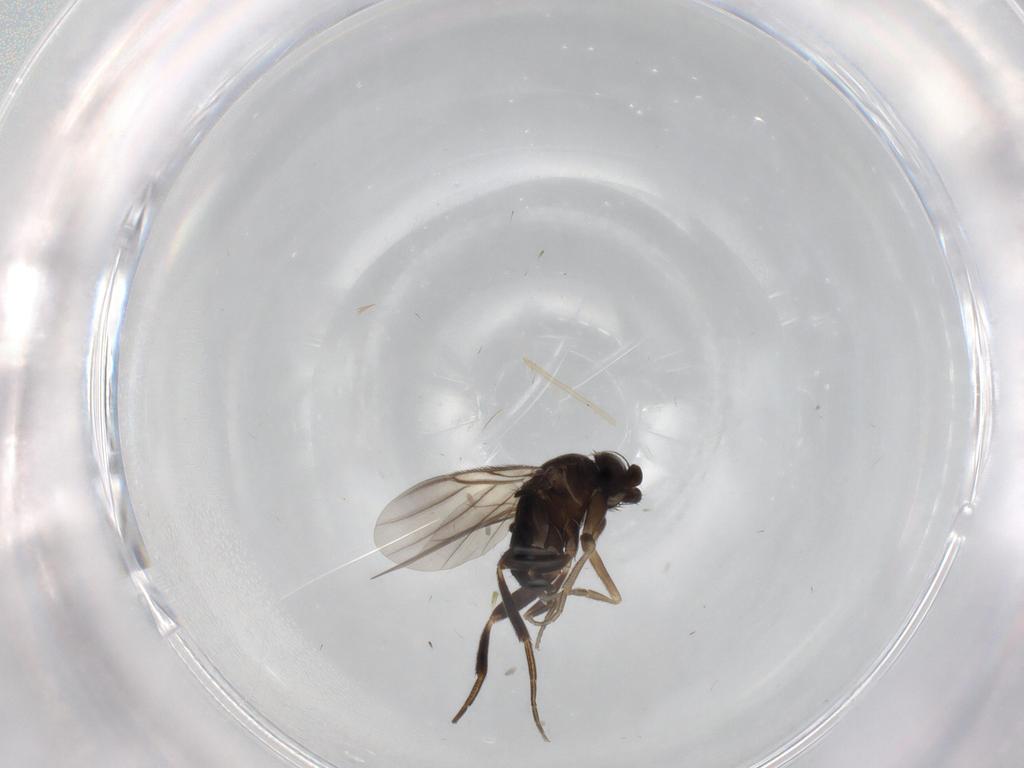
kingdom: Animalia
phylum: Arthropoda
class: Insecta
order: Diptera
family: Phoridae
